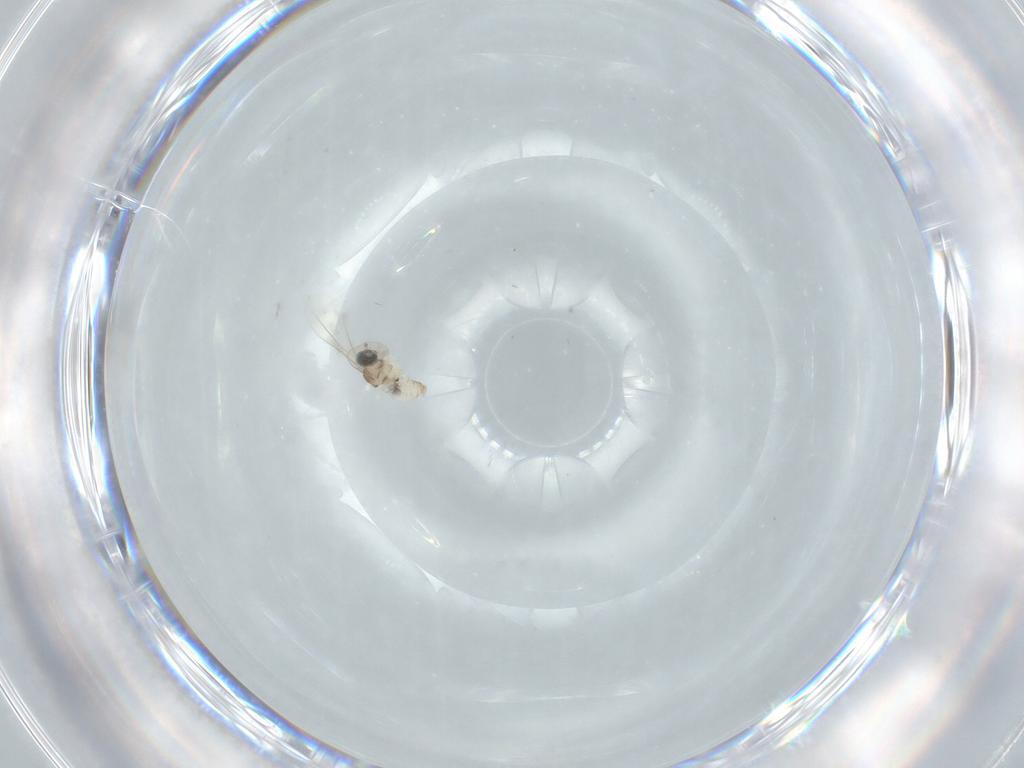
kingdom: Animalia
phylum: Arthropoda
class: Insecta
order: Diptera
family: Cecidomyiidae
